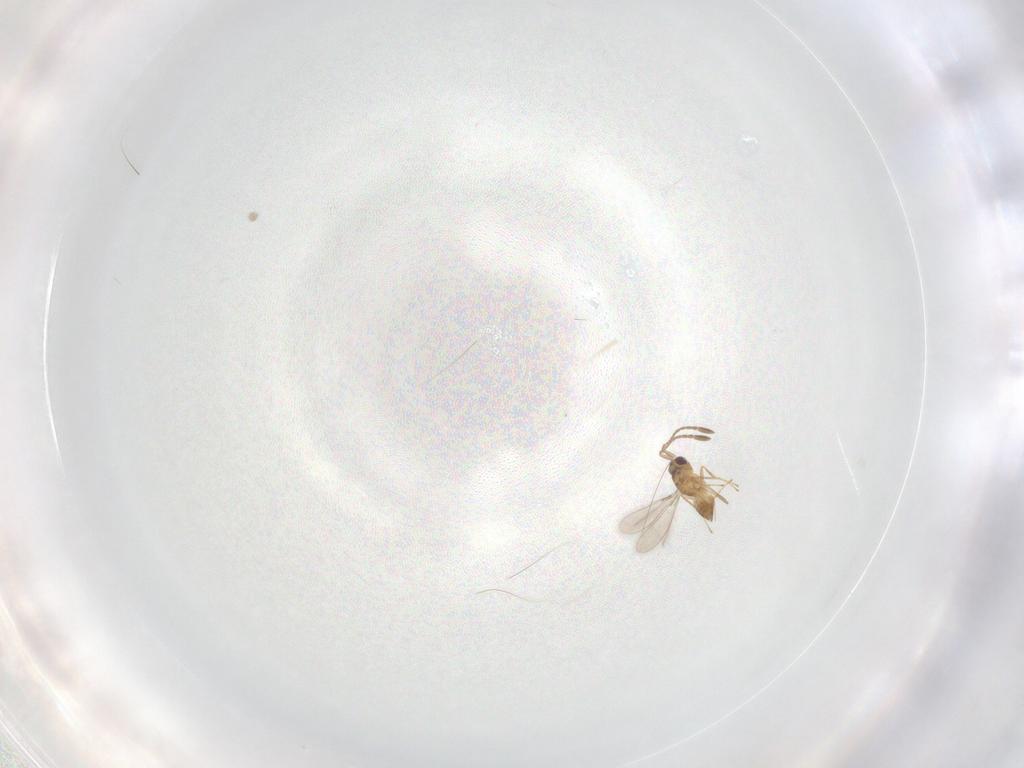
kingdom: Animalia
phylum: Arthropoda
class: Insecta
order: Hymenoptera
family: Mymaridae
